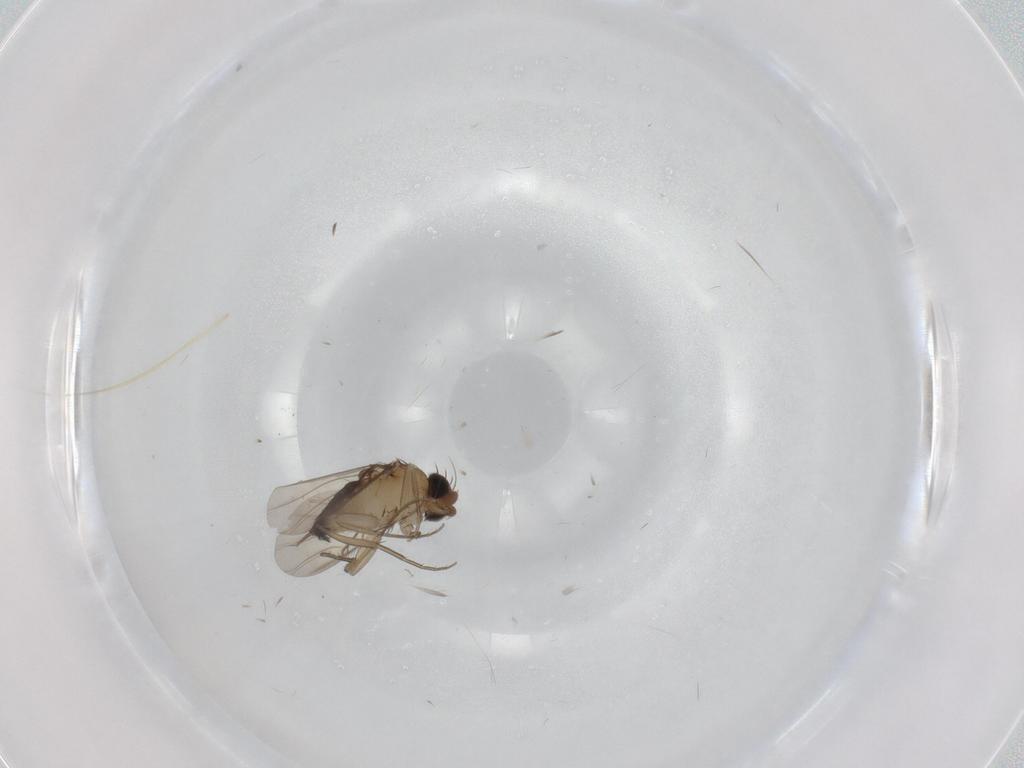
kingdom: Animalia
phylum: Arthropoda
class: Insecta
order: Diptera
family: Phoridae
